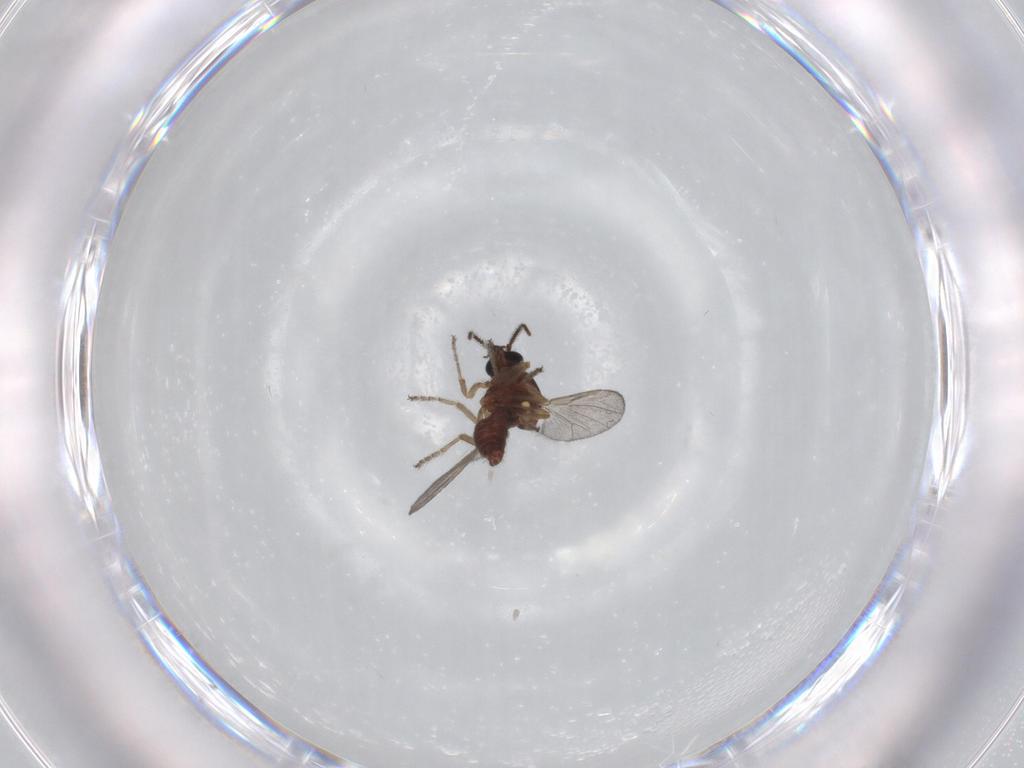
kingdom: Animalia
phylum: Arthropoda
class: Insecta
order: Diptera
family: Ceratopogonidae
